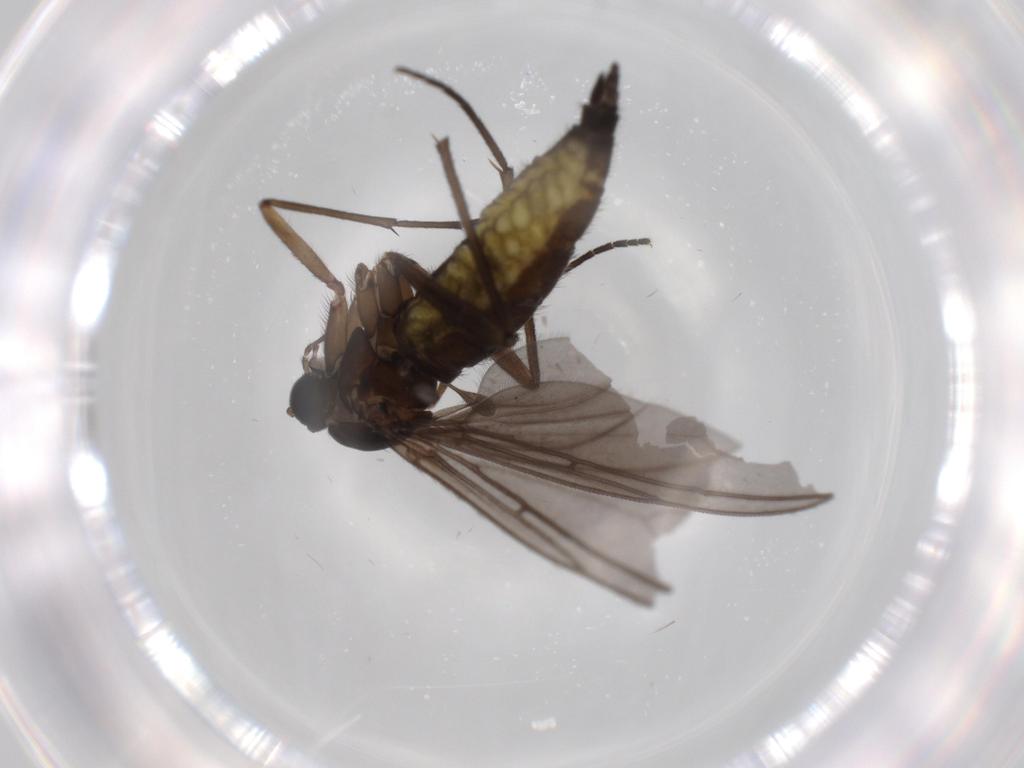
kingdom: Animalia
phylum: Arthropoda
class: Insecta
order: Diptera
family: Sciaridae
